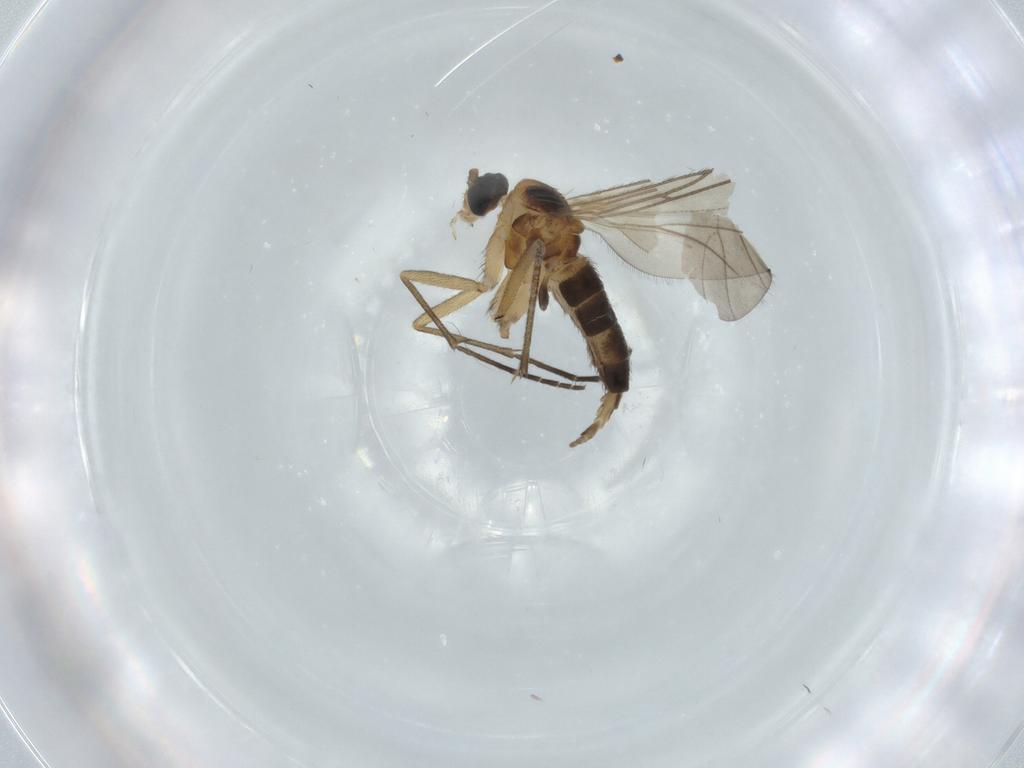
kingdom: Animalia
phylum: Arthropoda
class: Insecta
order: Diptera
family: Sciaridae
